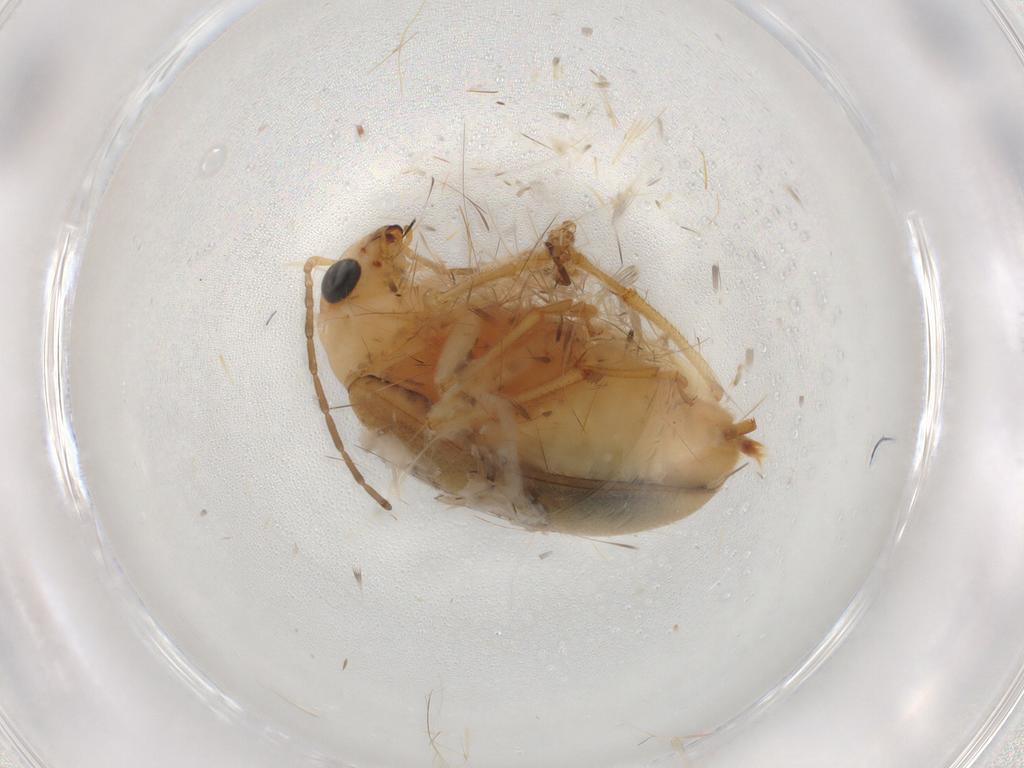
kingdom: Animalia
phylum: Arthropoda
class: Insecta
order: Coleoptera
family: Chrysomelidae
